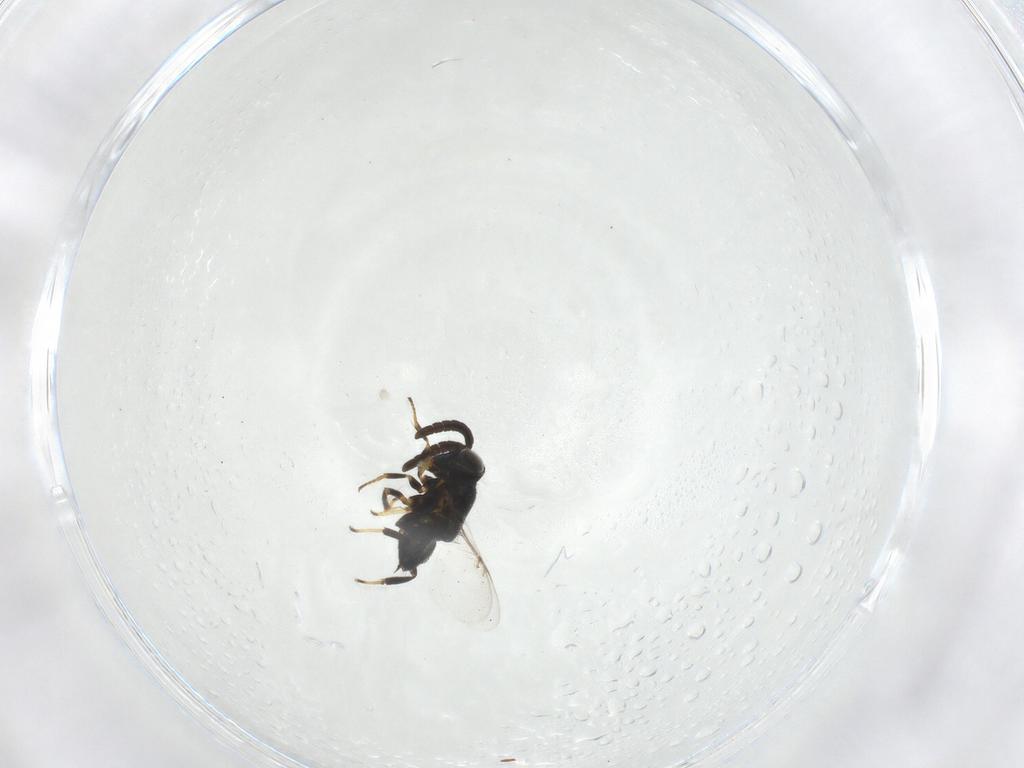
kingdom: Animalia
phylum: Arthropoda
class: Insecta
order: Hymenoptera
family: Encyrtidae
